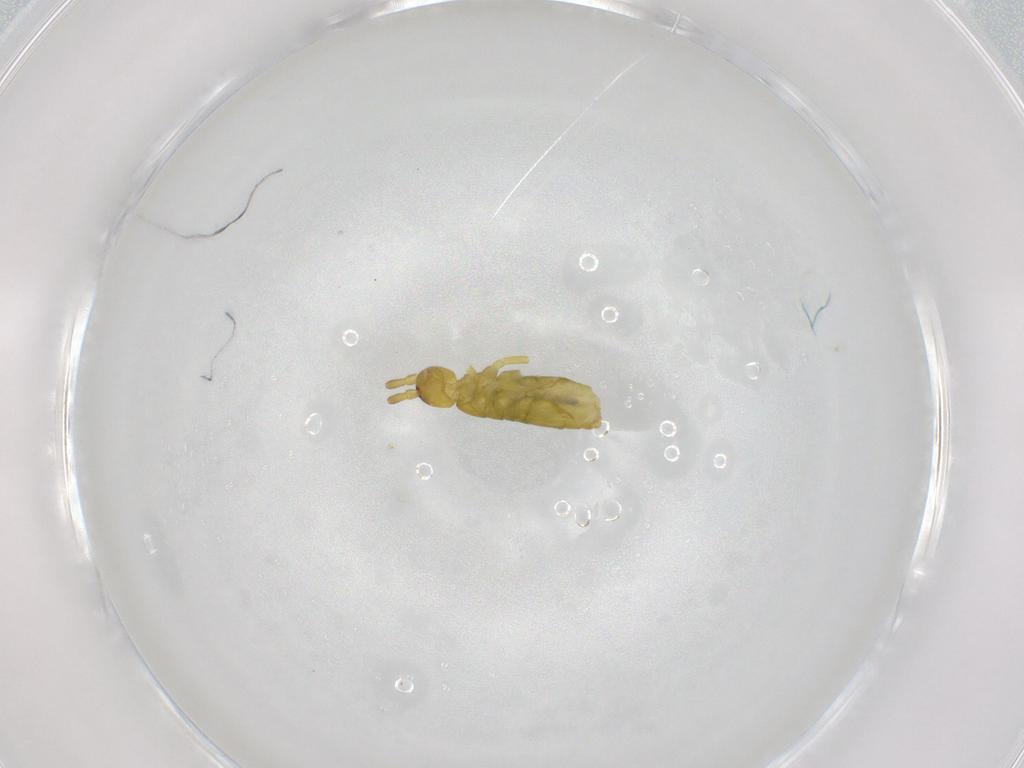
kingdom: Animalia
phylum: Arthropoda
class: Collembola
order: Entomobryomorpha
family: Tomoceridae
